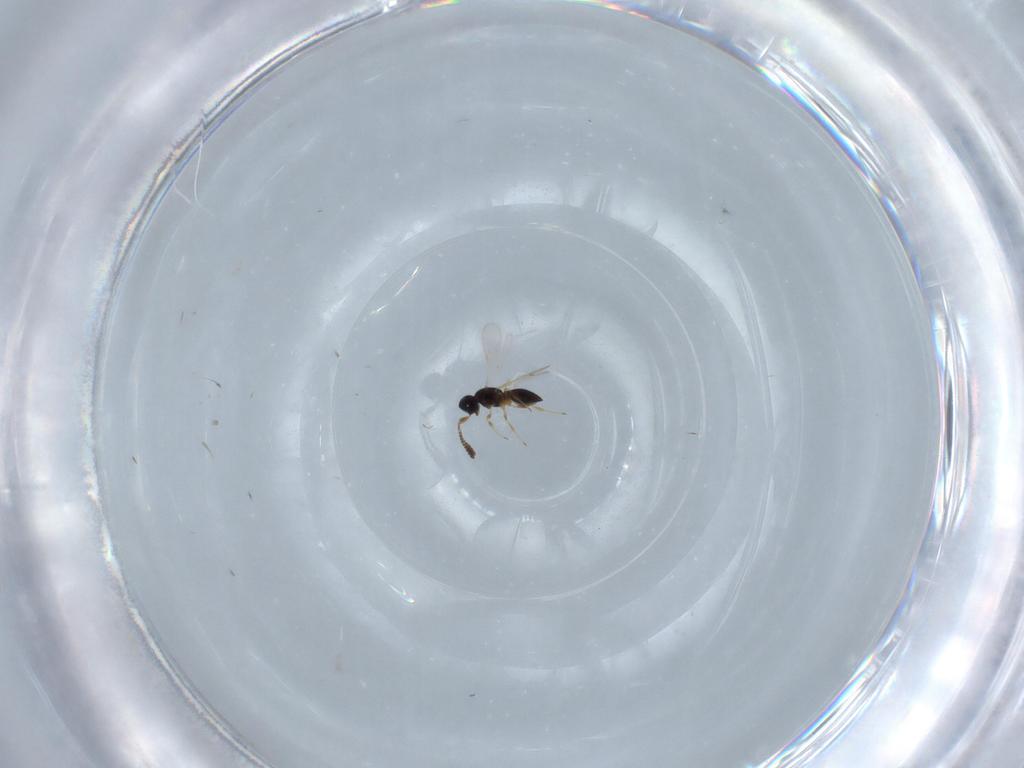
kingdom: Animalia
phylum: Arthropoda
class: Insecta
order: Hymenoptera
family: Scelionidae
